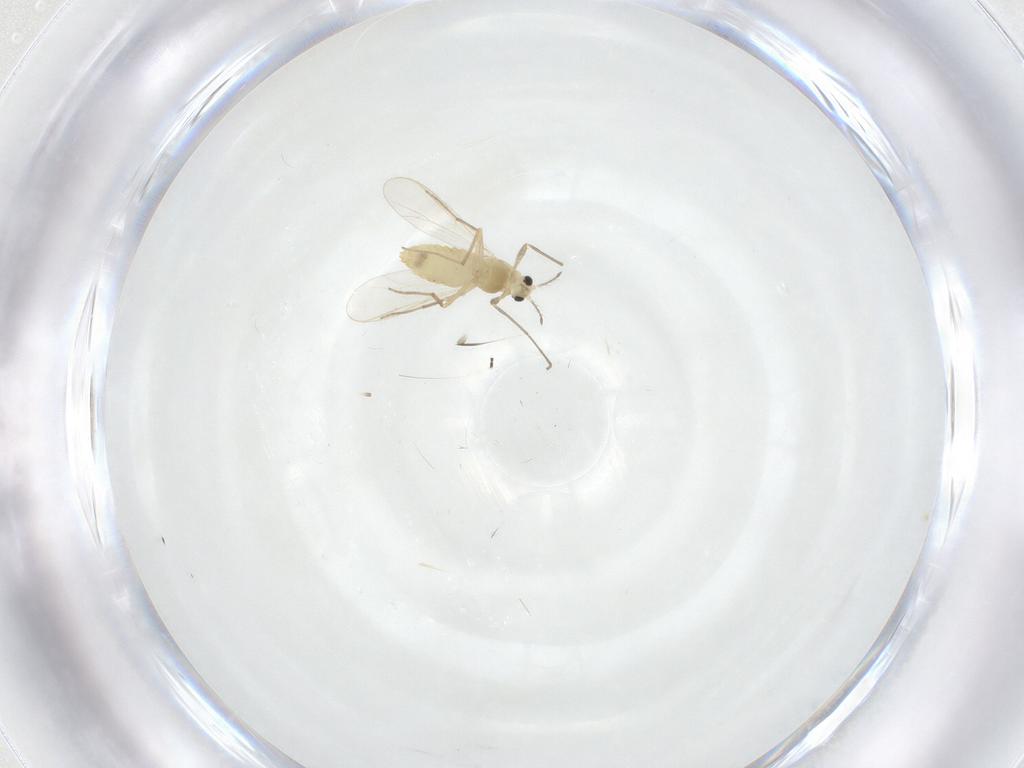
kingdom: Animalia
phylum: Arthropoda
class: Insecta
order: Diptera
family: Chironomidae
